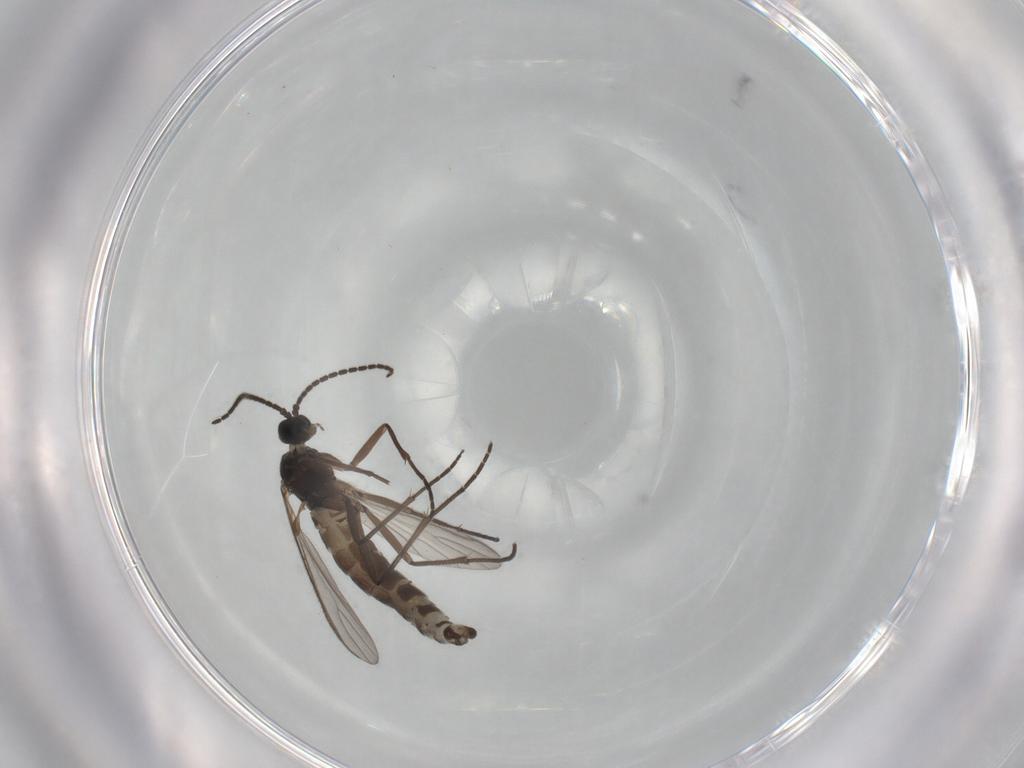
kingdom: Animalia
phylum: Arthropoda
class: Insecta
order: Diptera
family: Sciaridae
